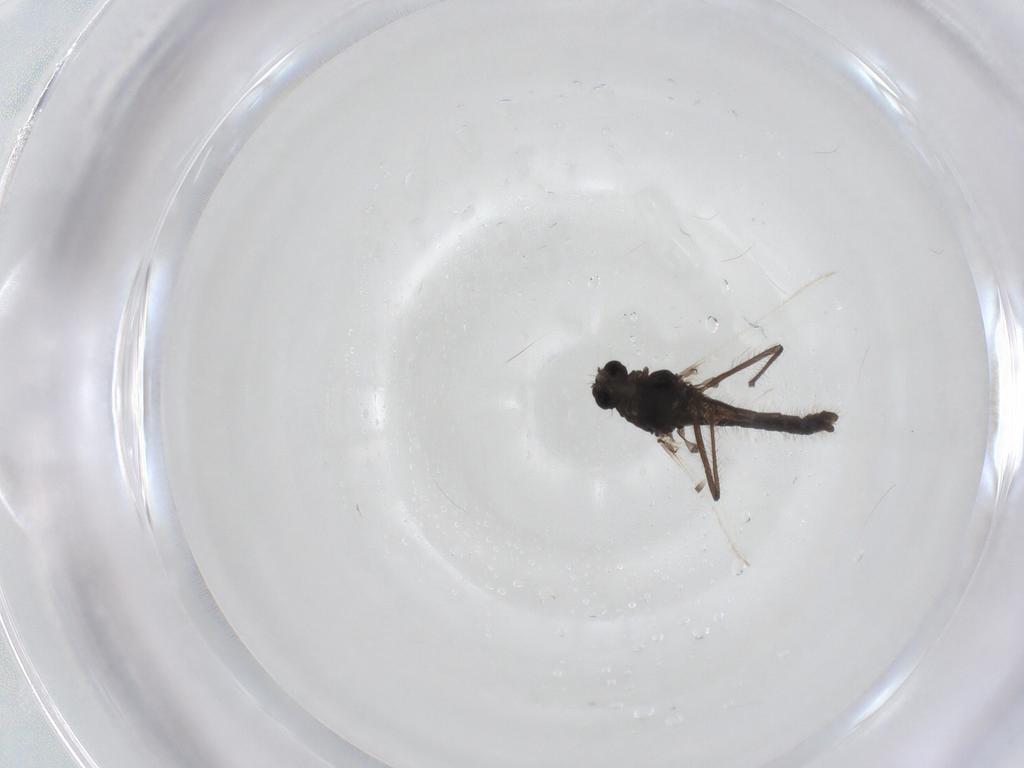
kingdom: Animalia
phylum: Arthropoda
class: Insecta
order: Diptera
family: Chironomidae
